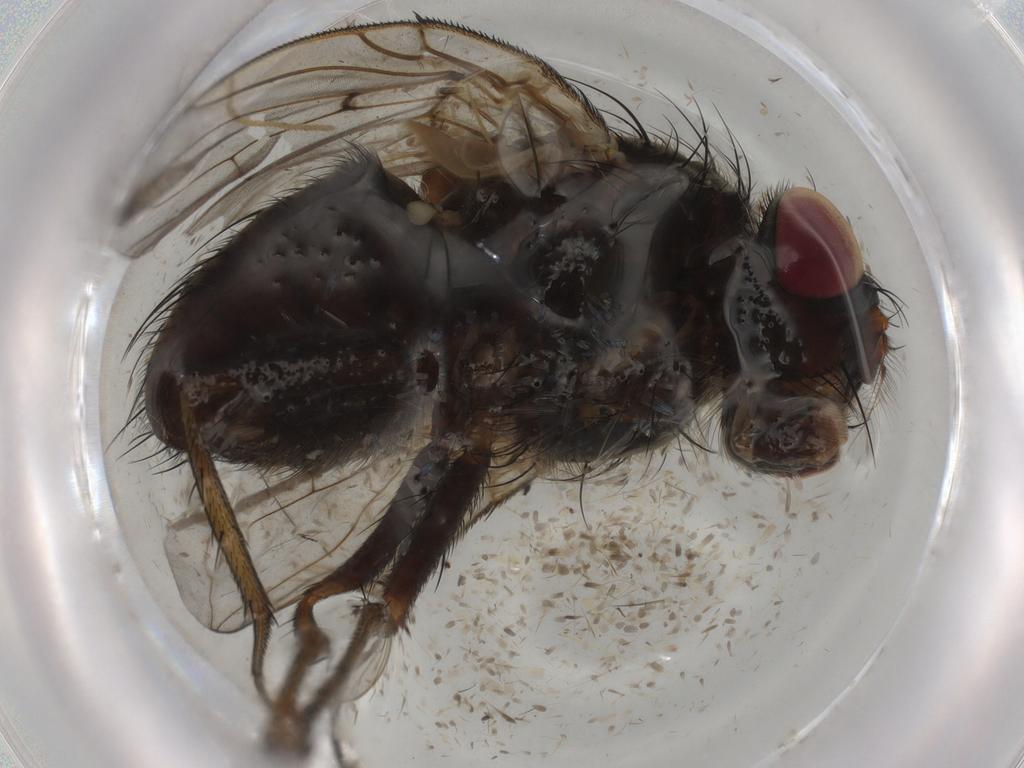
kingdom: Animalia
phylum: Arthropoda
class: Insecta
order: Diptera
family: Tachinidae
